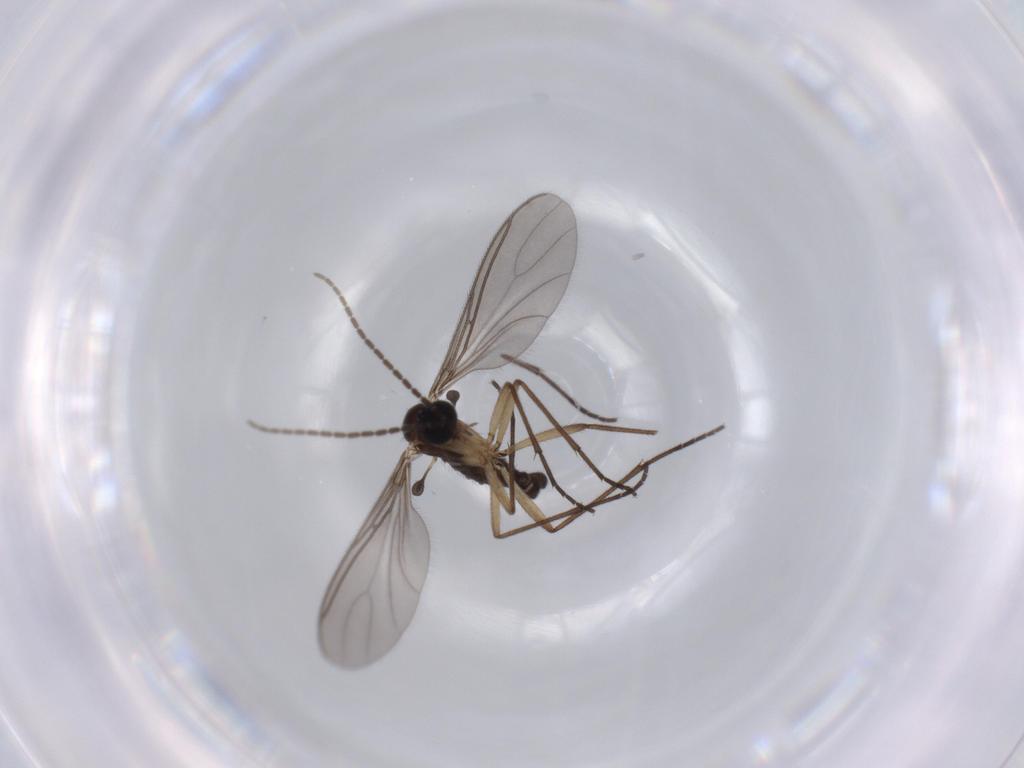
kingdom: Animalia
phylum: Arthropoda
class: Insecta
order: Diptera
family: Sciaridae
